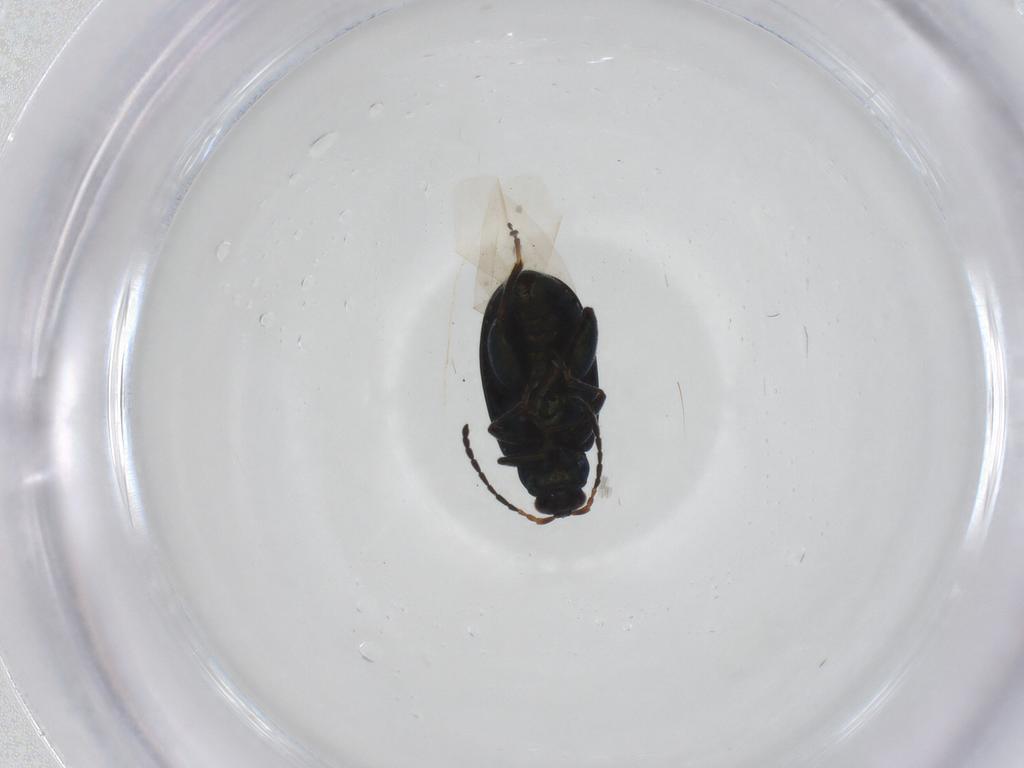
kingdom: Animalia
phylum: Arthropoda
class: Insecta
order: Coleoptera
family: Chrysomelidae
